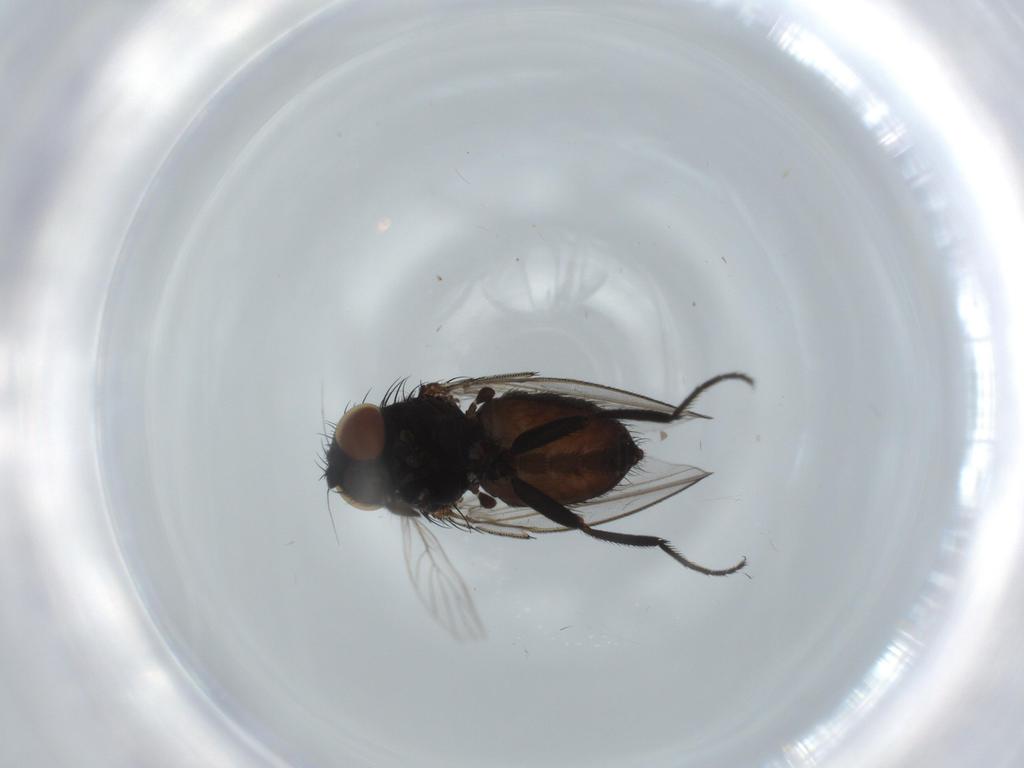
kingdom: Animalia
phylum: Arthropoda
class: Insecta
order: Diptera
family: Milichiidae
